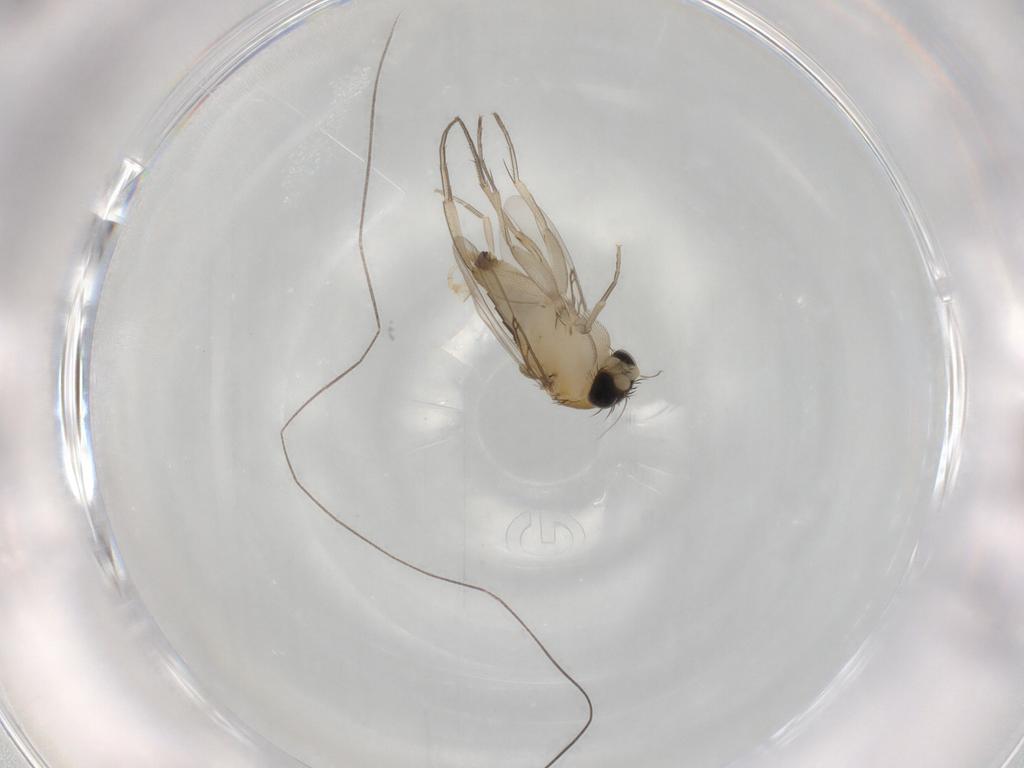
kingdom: Animalia
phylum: Arthropoda
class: Insecta
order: Diptera
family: Phoridae
